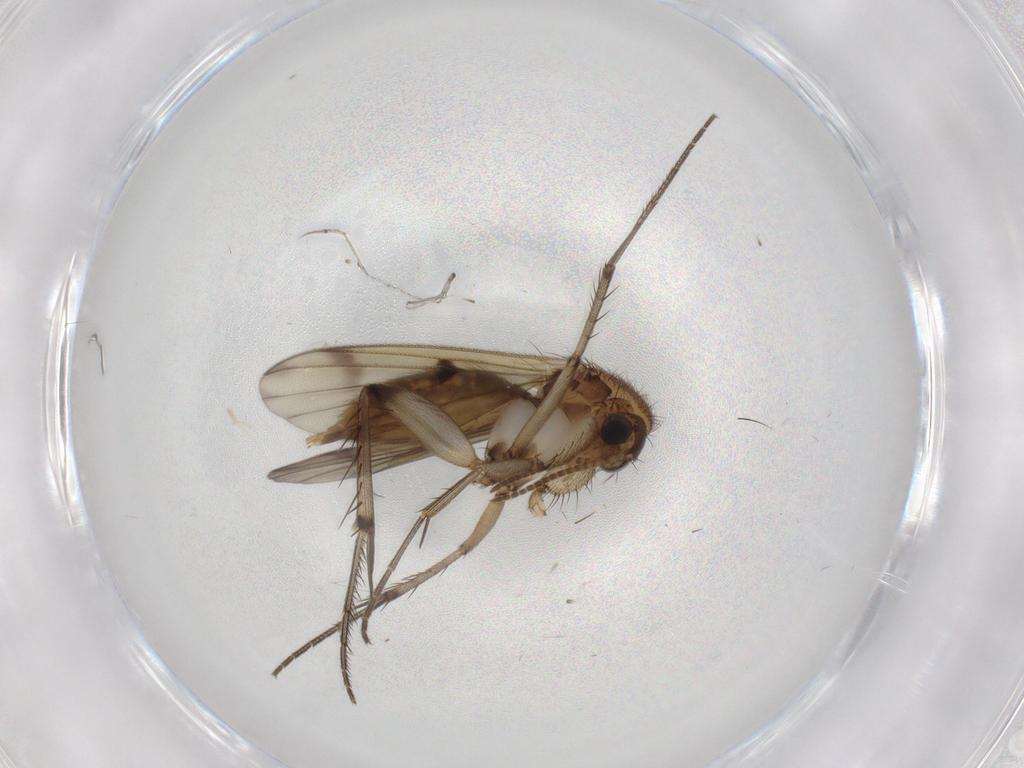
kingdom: Animalia
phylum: Arthropoda
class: Insecta
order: Diptera
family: Mycetophilidae
